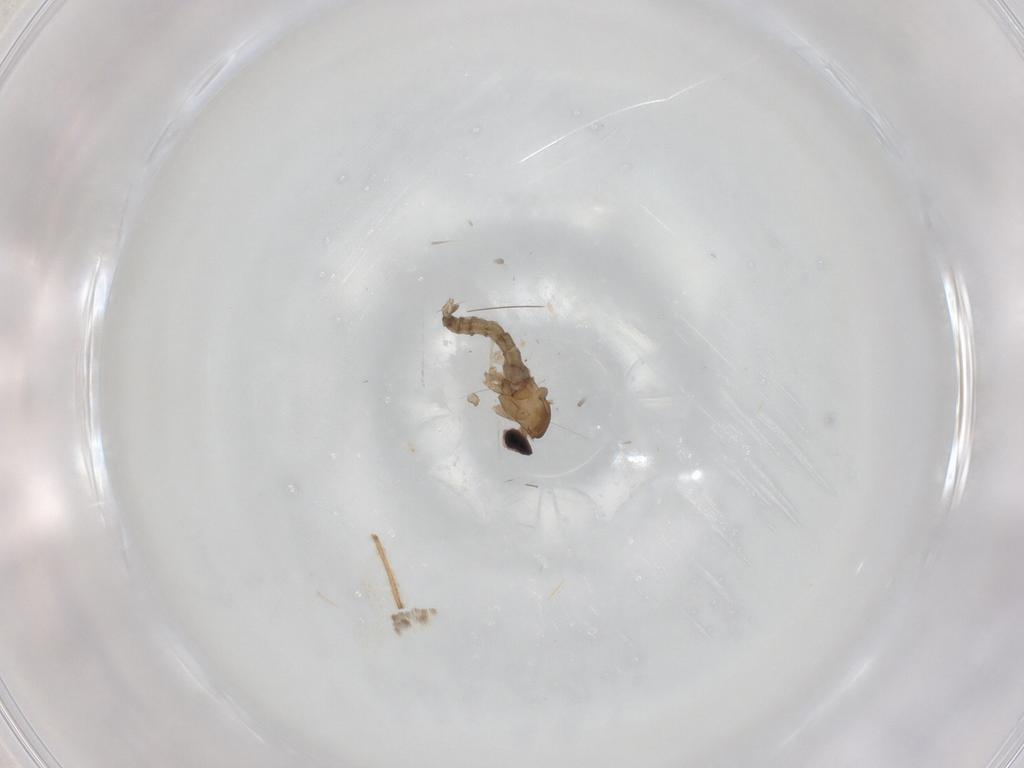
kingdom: Animalia
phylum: Arthropoda
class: Insecta
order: Diptera
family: Glossinidae
